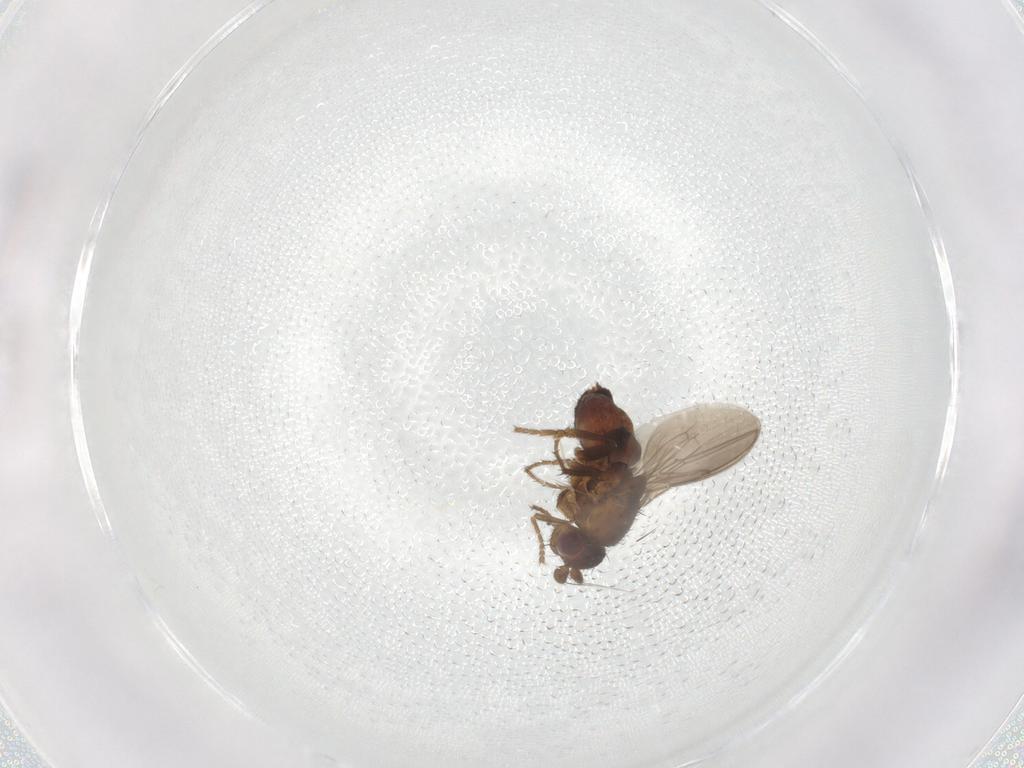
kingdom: Animalia
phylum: Arthropoda
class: Insecta
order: Diptera
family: Sphaeroceridae
